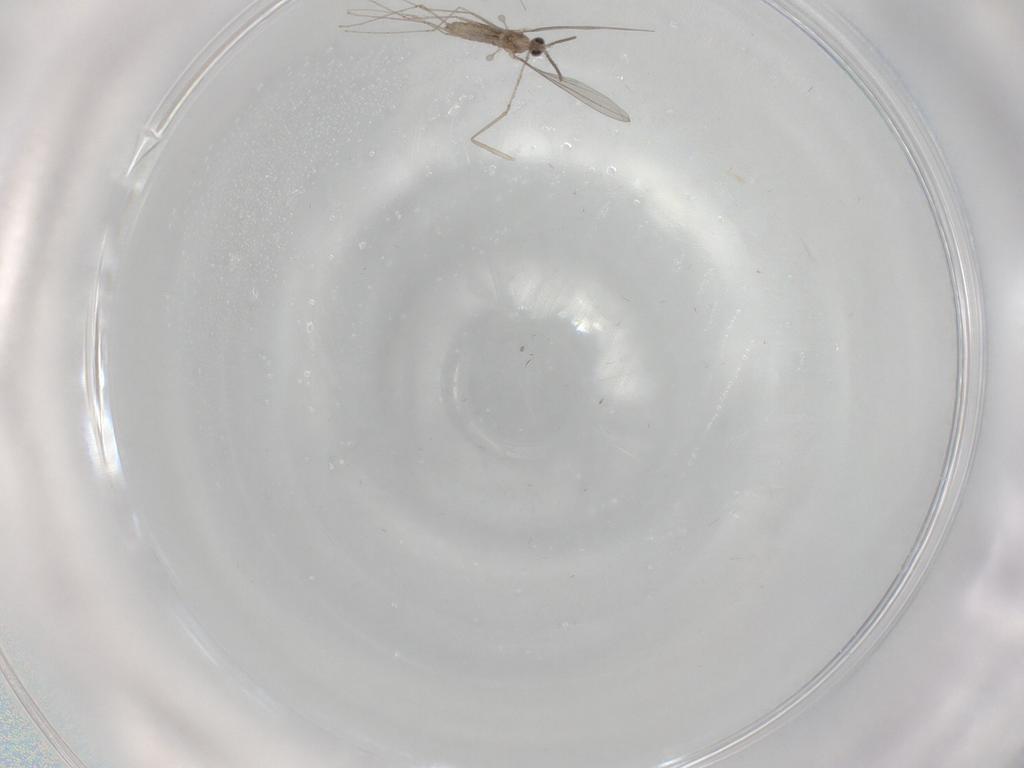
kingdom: Animalia
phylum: Arthropoda
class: Insecta
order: Diptera
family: Cecidomyiidae
